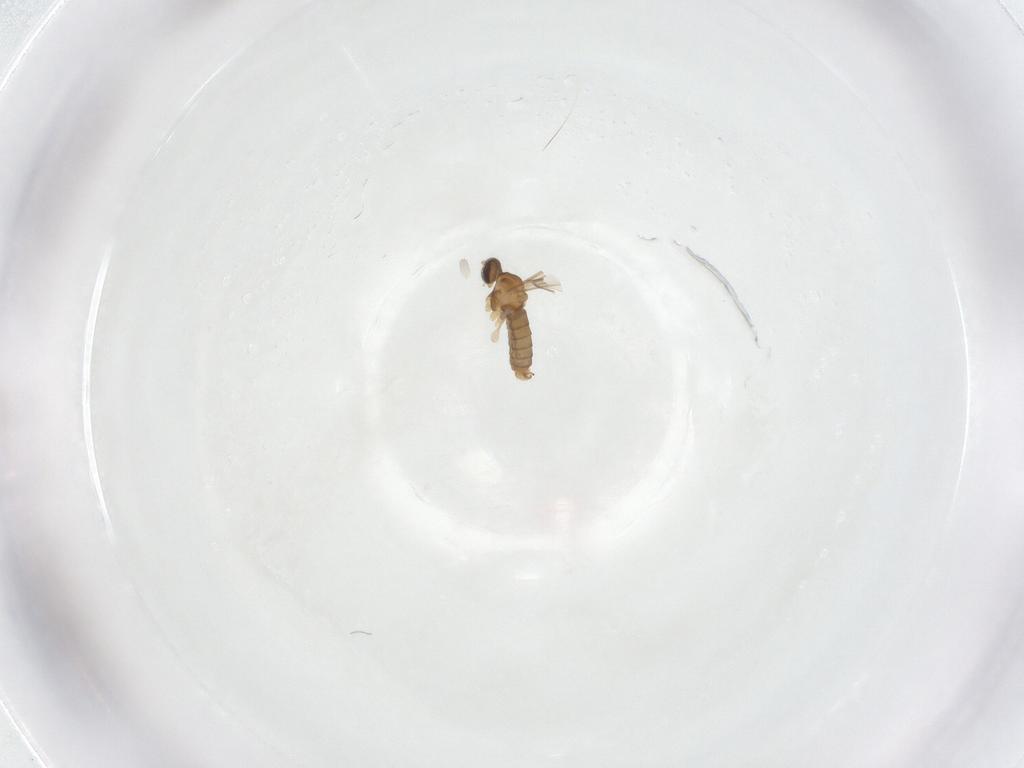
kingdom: Animalia
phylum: Arthropoda
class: Insecta
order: Diptera
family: Cecidomyiidae
